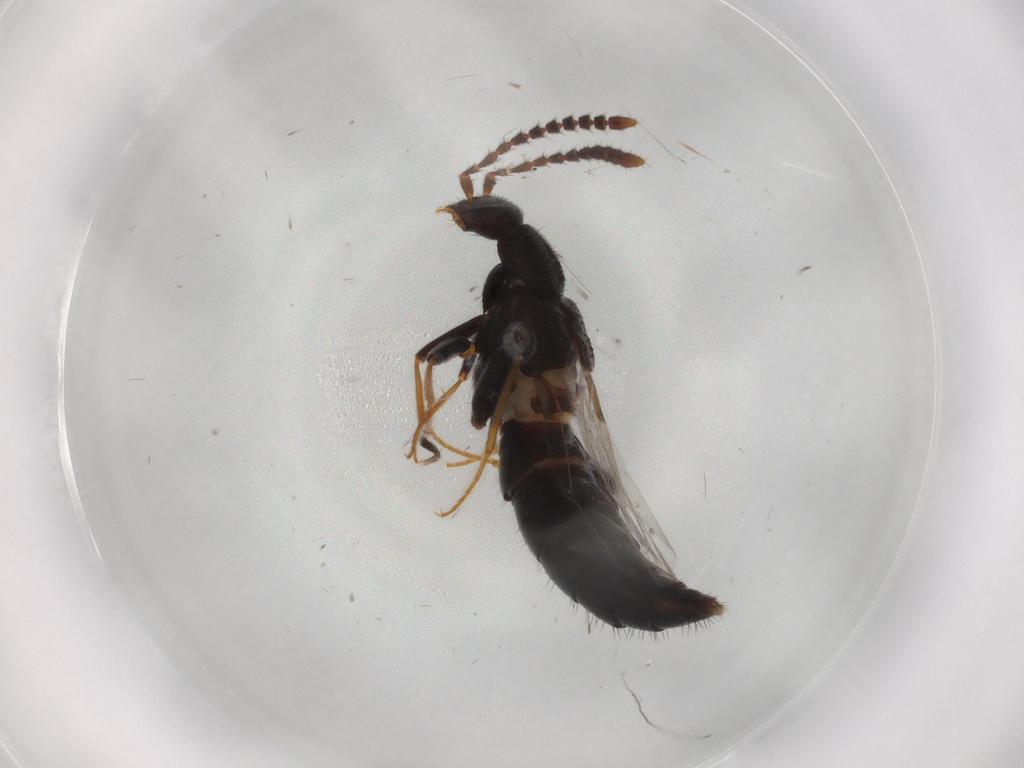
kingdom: Animalia
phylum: Arthropoda
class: Insecta
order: Coleoptera
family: Staphylinidae
